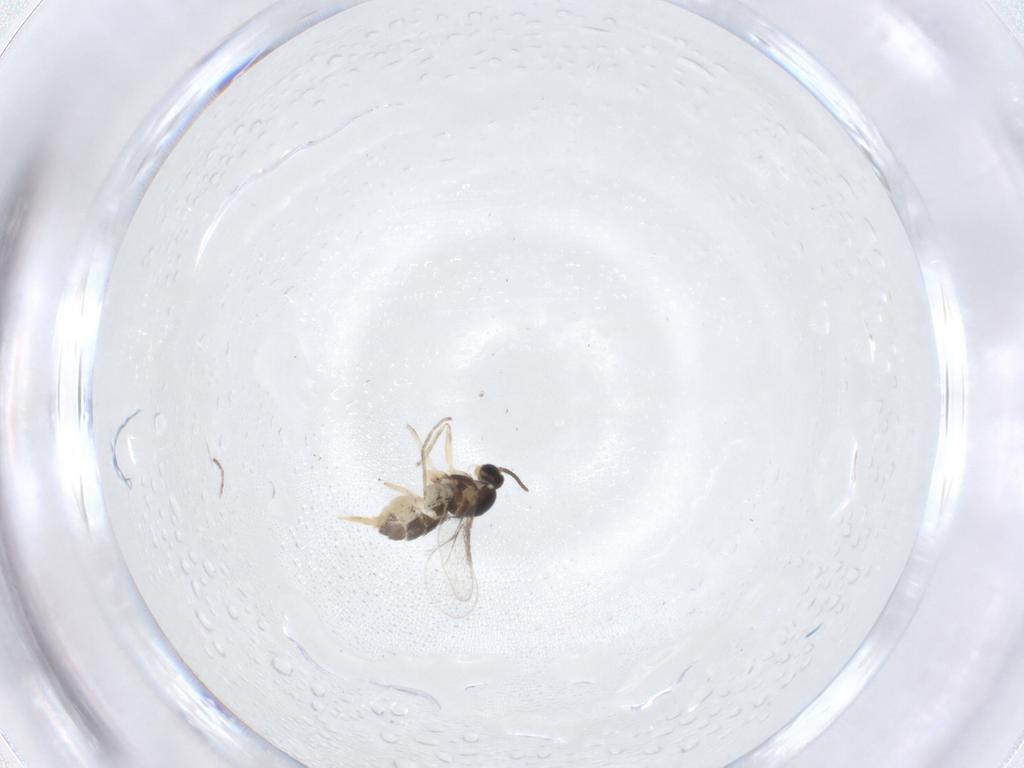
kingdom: Animalia
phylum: Arthropoda
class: Insecta
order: Diptera
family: Cecidomyiidae
